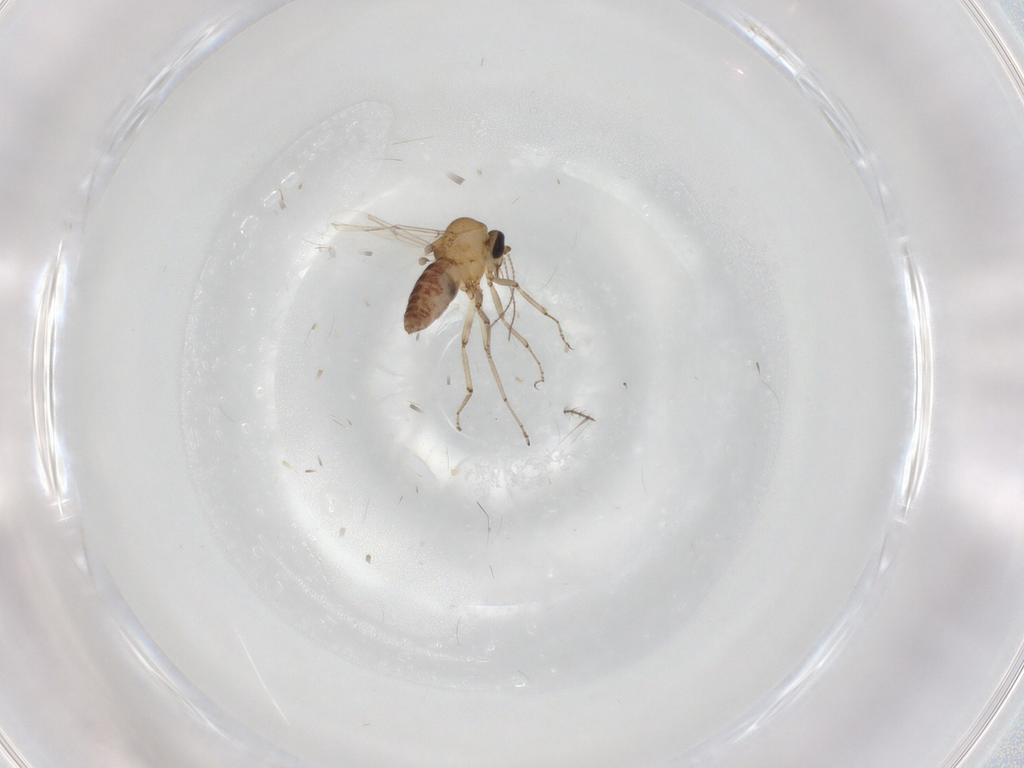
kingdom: Animalia
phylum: Arthropoda
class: Insecta
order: Diptera
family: Ceratopogonidae
